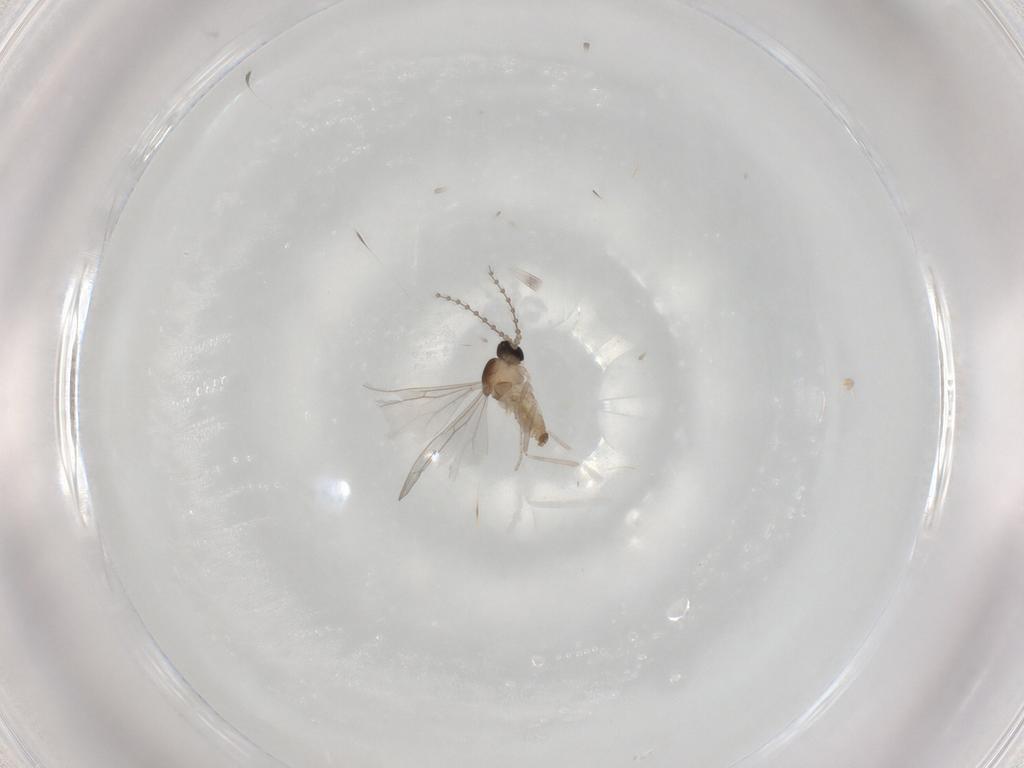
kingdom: Animalia
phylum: Arthropoda
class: Insecta
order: Diptera
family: Cecidomyiidae
